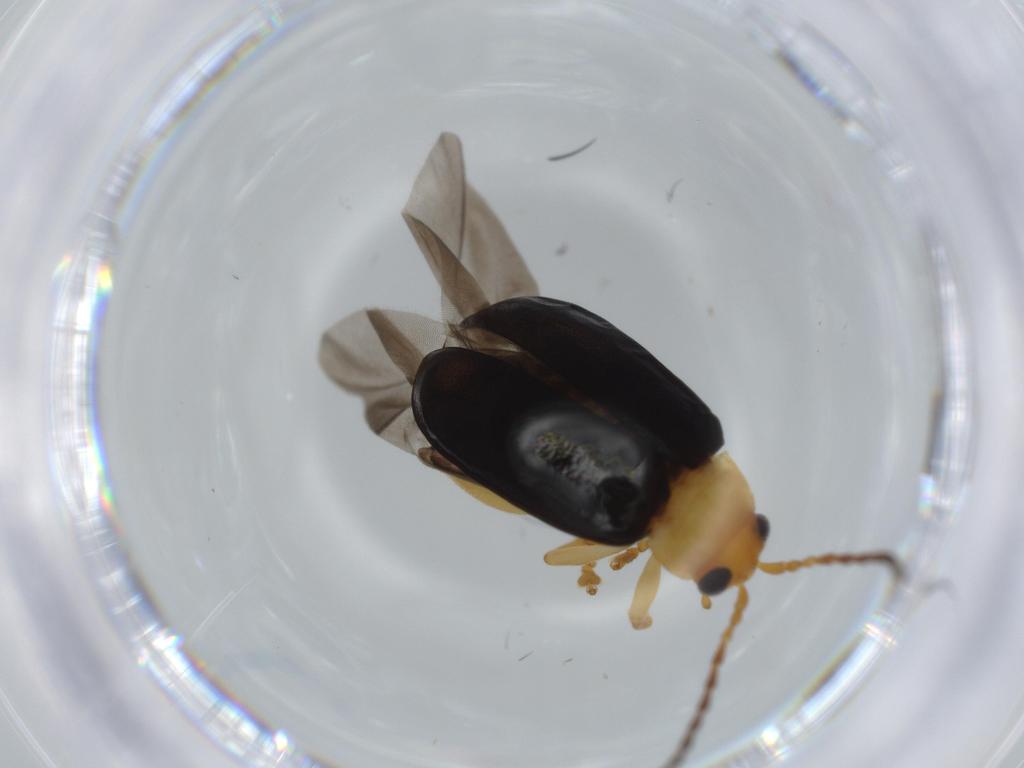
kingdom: Animalia
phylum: Arthropoda
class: Insecta
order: Coleoptera
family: Chrysomelidae
